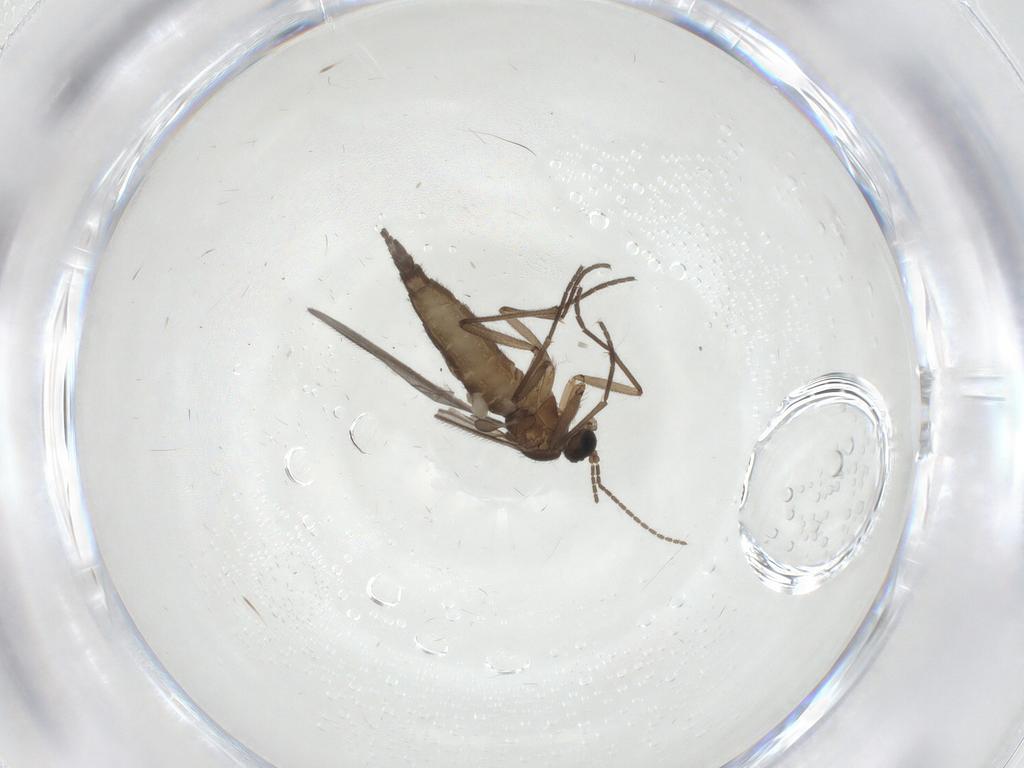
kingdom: Animalia
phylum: Arthropoda
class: Insecta
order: Diptera
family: Sciaridae
